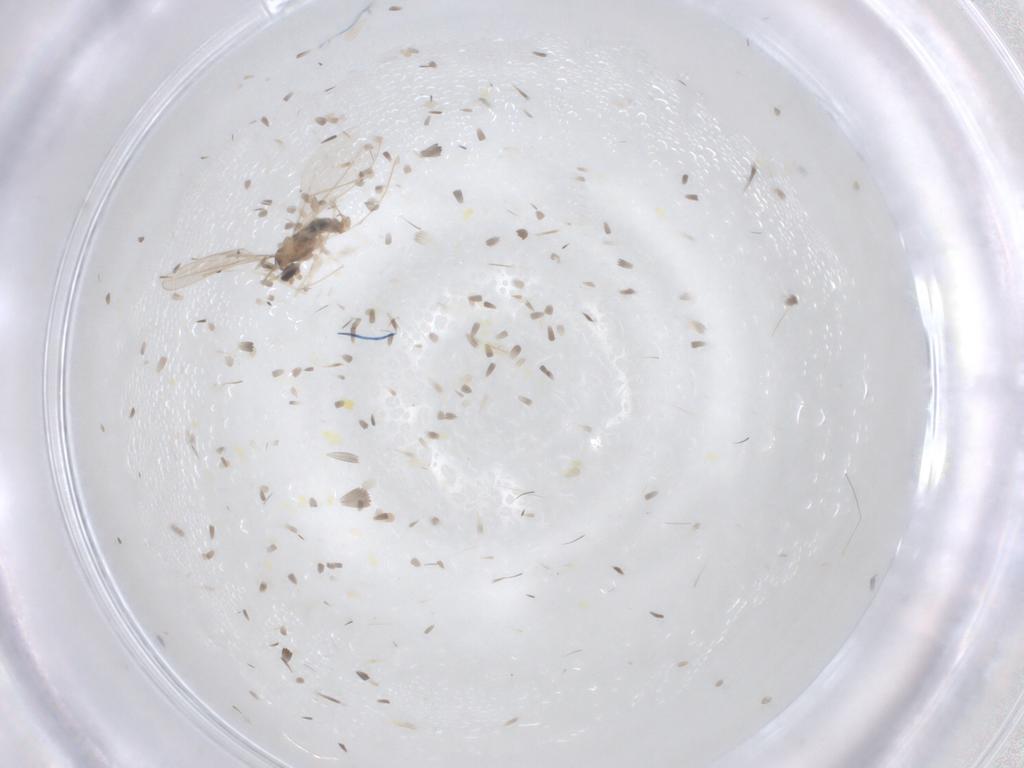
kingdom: Animalia
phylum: Arthropoda
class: Insecta
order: Diptera
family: Cecidomyiidae
